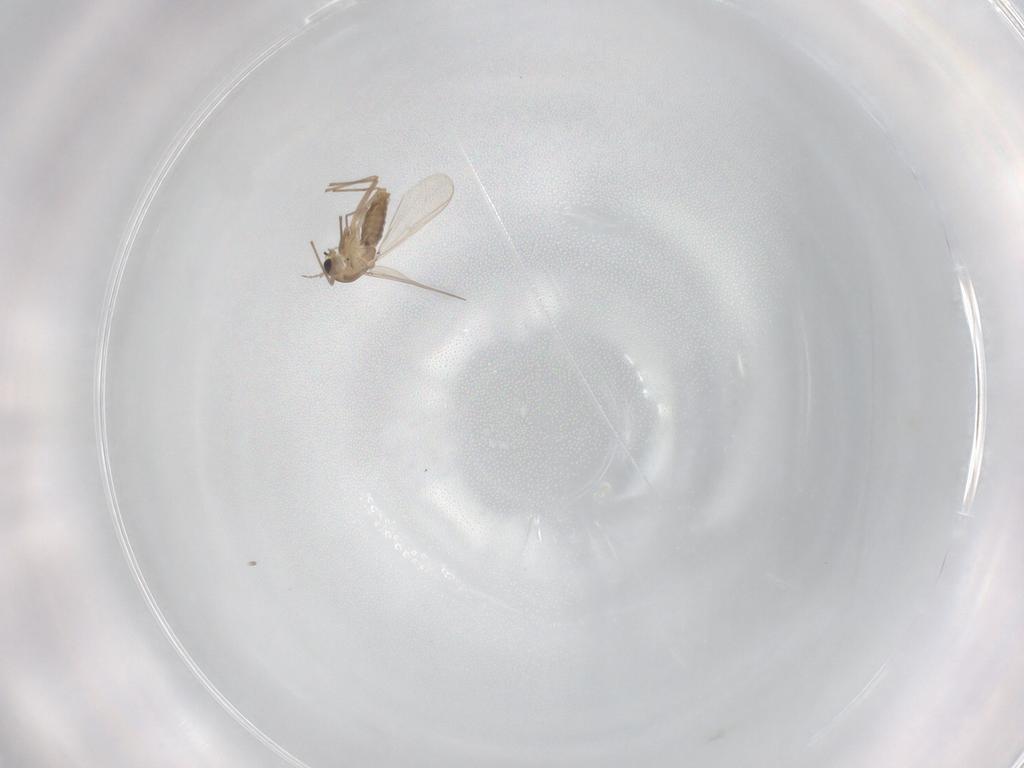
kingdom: Animalia
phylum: Arthropoda
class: Insecta
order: Diptera
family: Chironomidae
